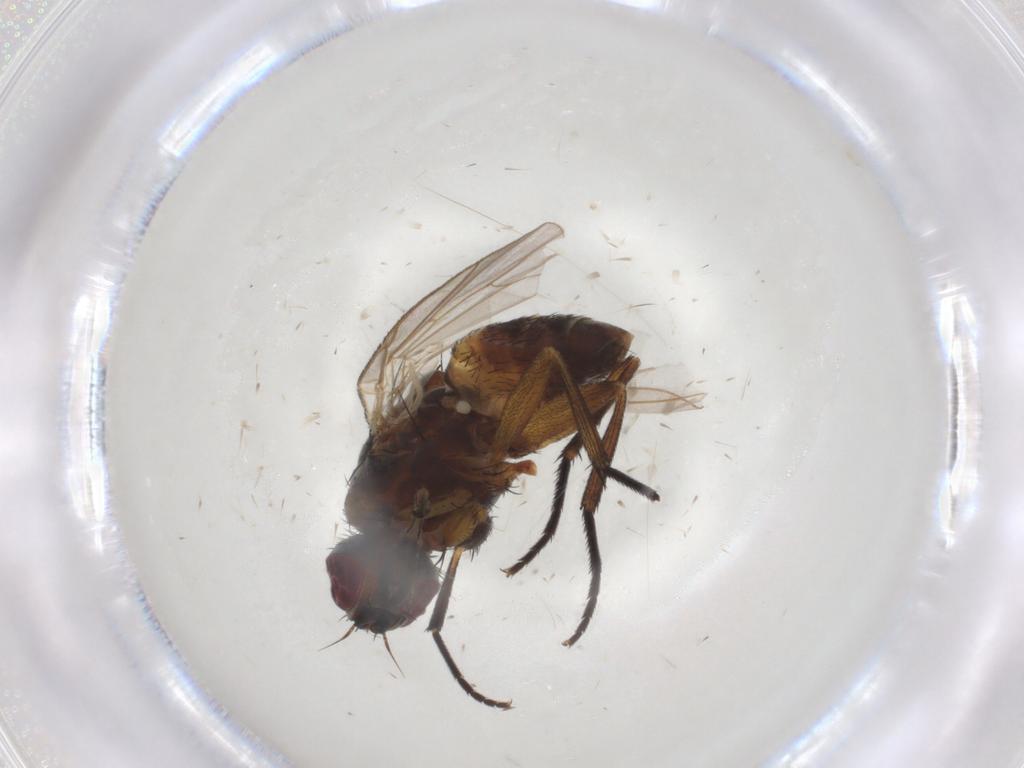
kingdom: Animalia
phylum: Arthropoda
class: Insecta
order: Diptera
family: Muscidae
